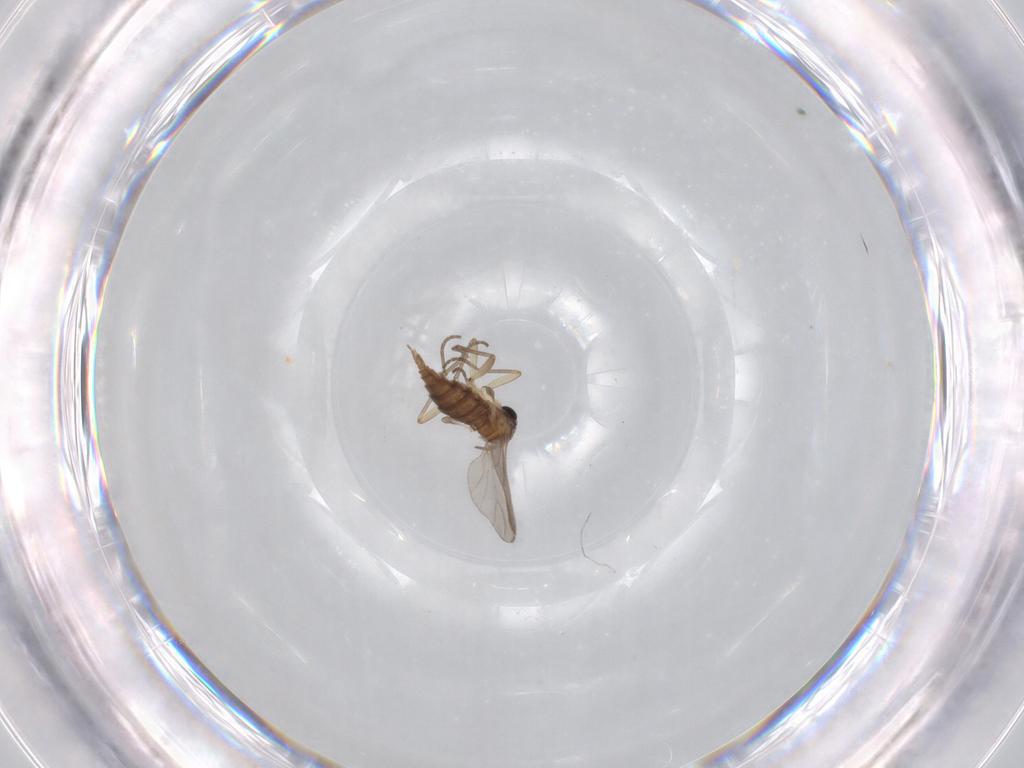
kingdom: Animalia
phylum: Arthropoda
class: Insecta
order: Diptera
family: Sciaridae
